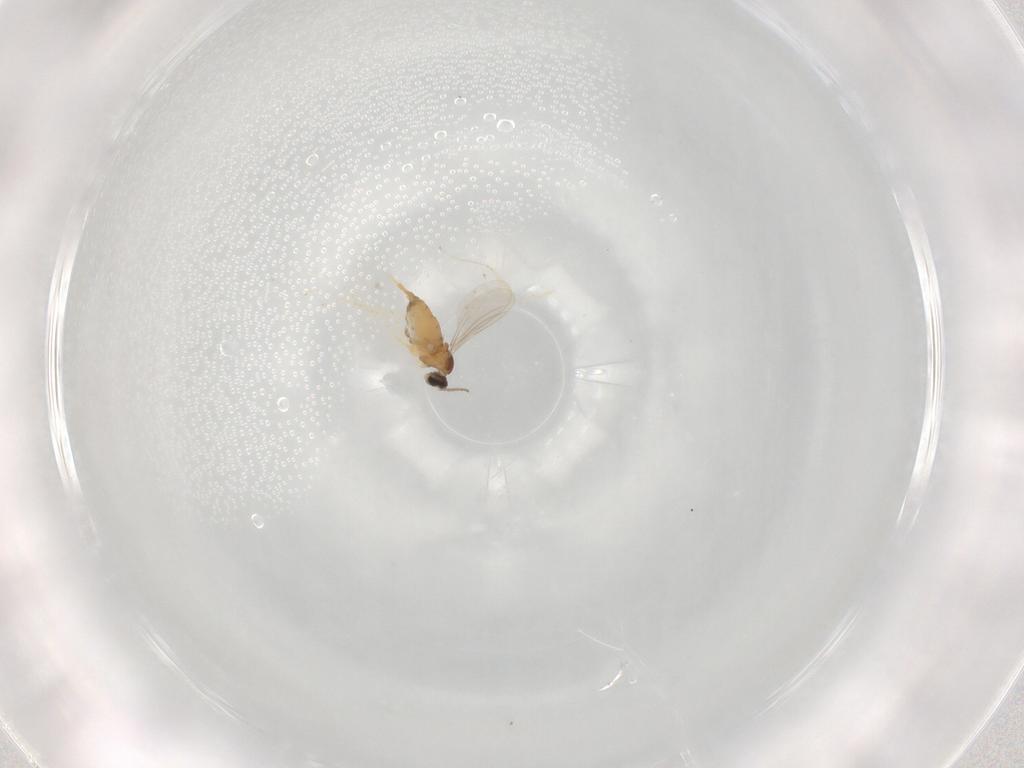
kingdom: Animalia
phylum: Arthropoda
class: Insecta
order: Diptera
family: Cecidomyiidae
